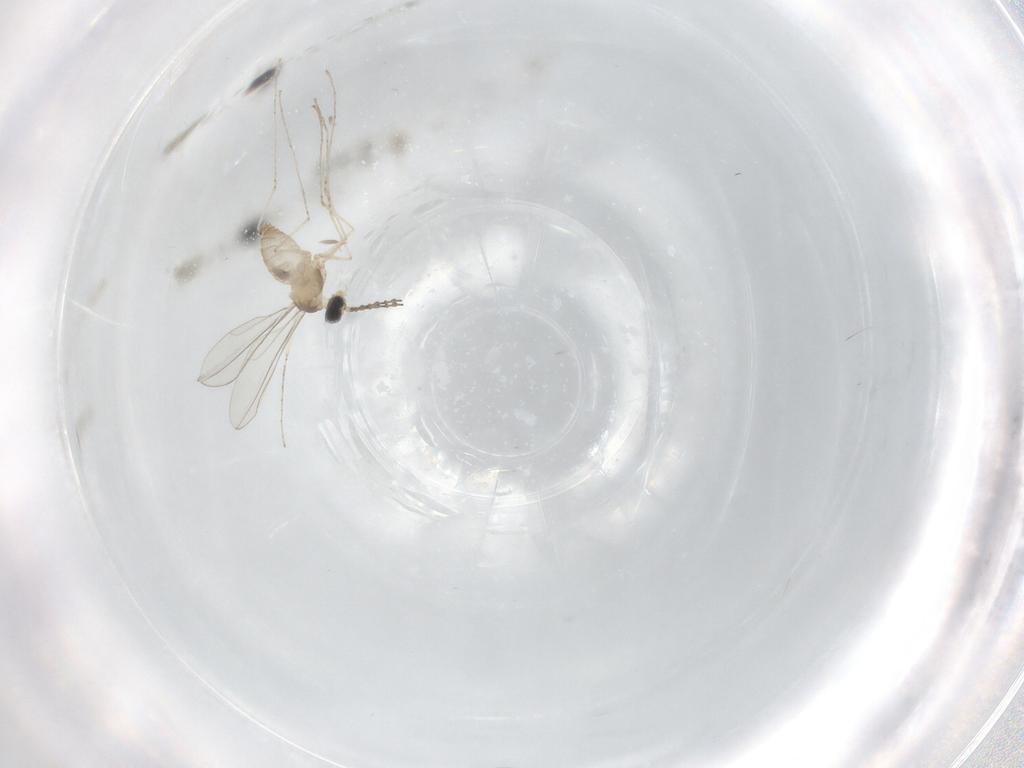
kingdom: Animalia
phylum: Arthropoda
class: Insecta
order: Diptera
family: Cecidomyiidae
